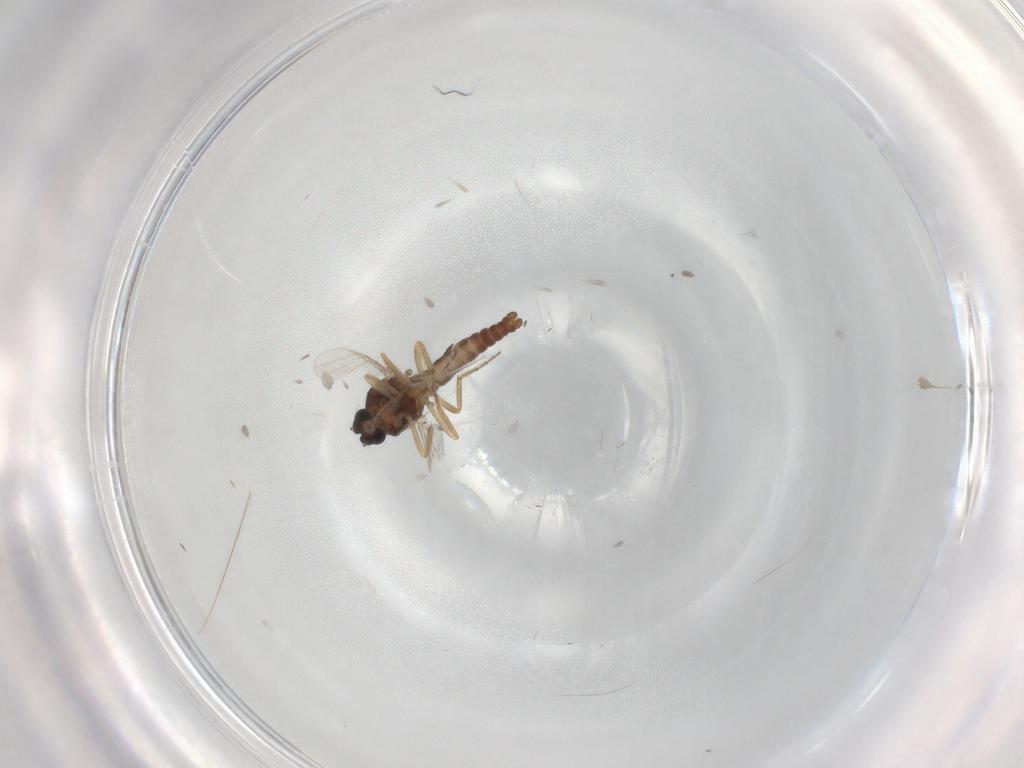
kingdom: Animalia
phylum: Arthropoda
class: Insecta
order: Diptera
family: Ceratopogonidae
